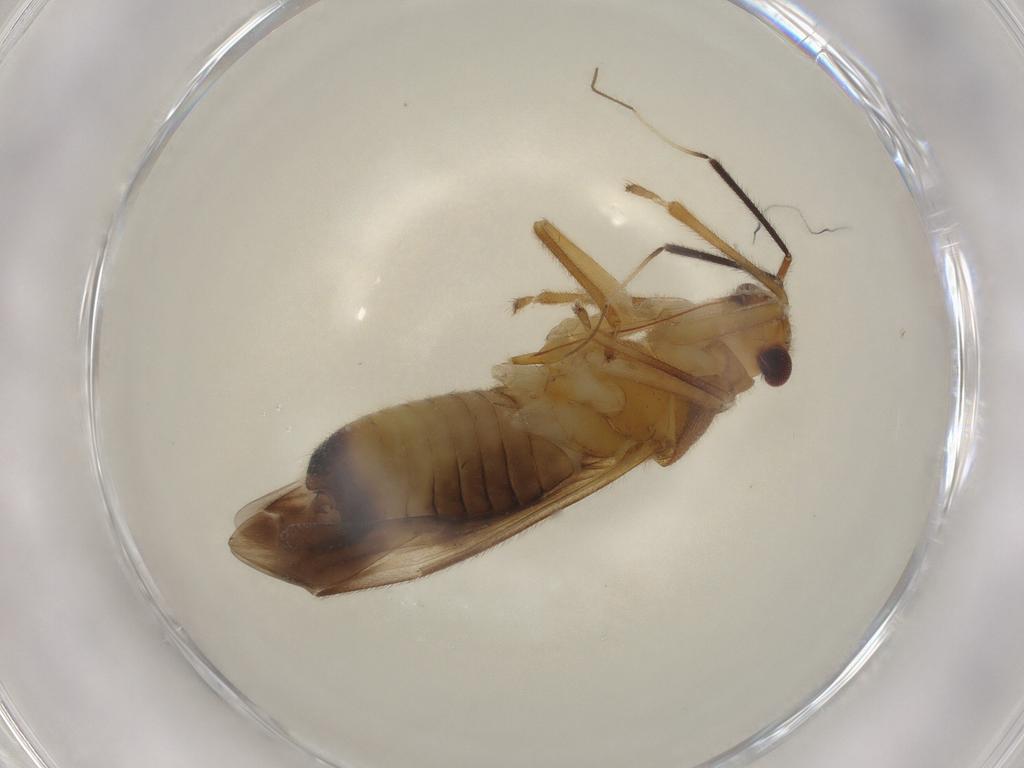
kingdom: Animalia
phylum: Arthropoda
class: Insecta
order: Hemiptera
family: Miridae
